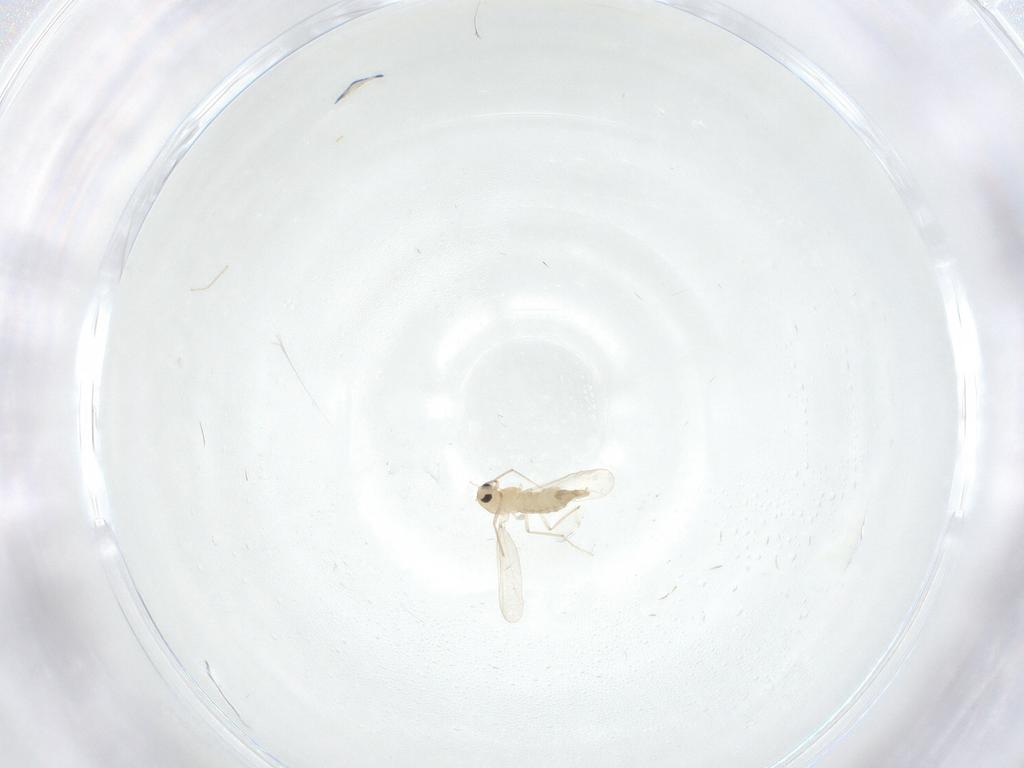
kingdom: Animalia
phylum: Arthropoda
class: Insecta
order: Diptera
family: Chironomidae
